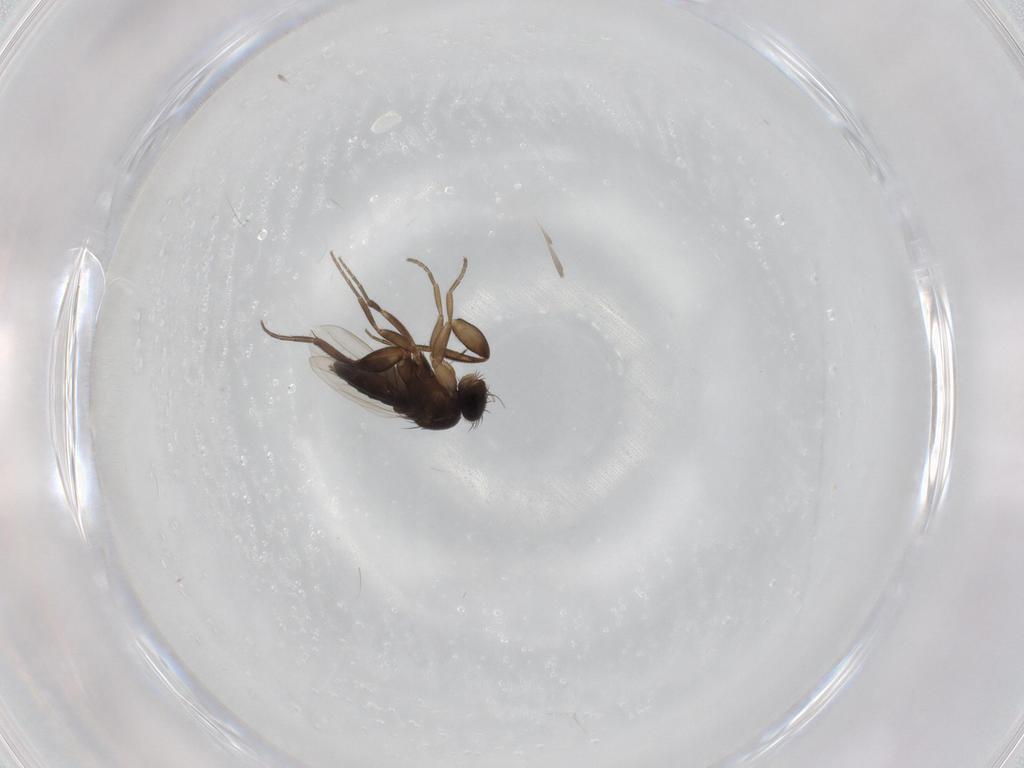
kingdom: Animalia
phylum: Arthropoda
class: Insecta
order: Diptera
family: Phoridae
